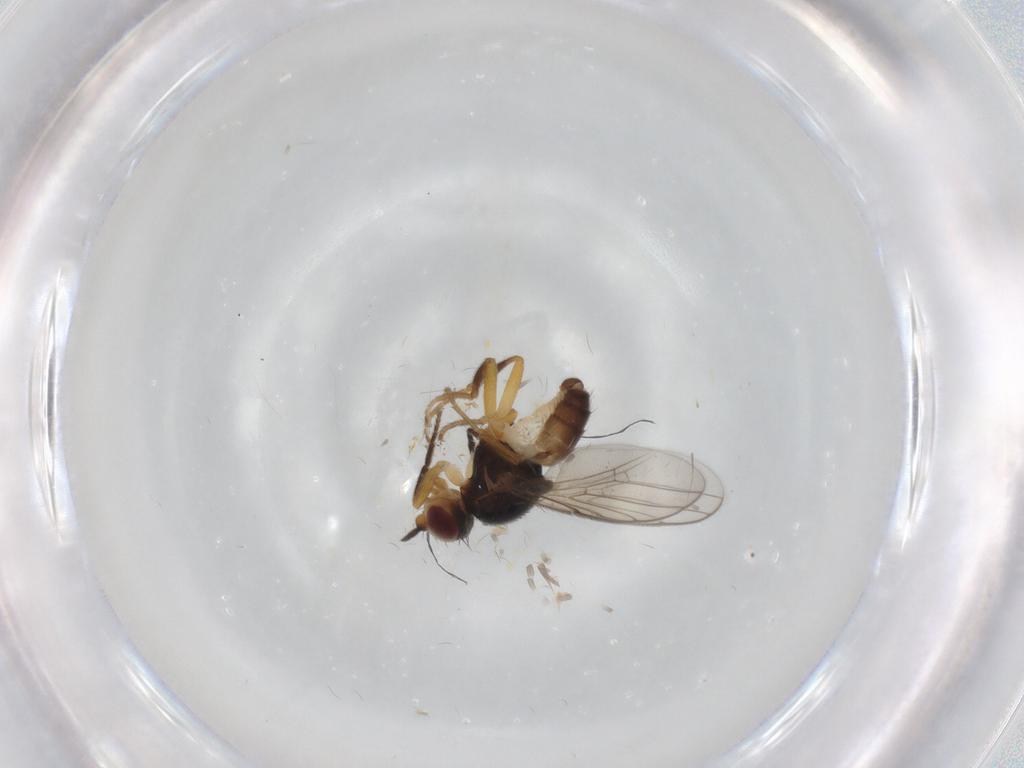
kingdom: Animalia
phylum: Arthropoda
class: Insecta
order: Diptera
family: Chloropidae
